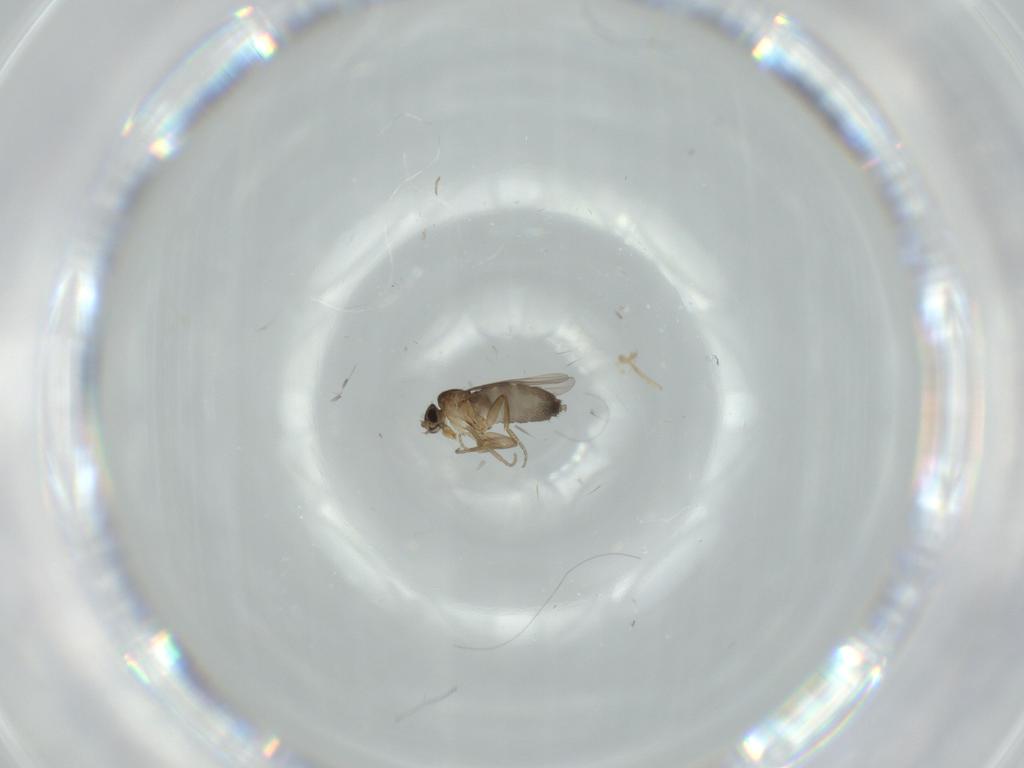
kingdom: Animalia
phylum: Arthropoda
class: Insecta
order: Diptera
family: Phoridae
